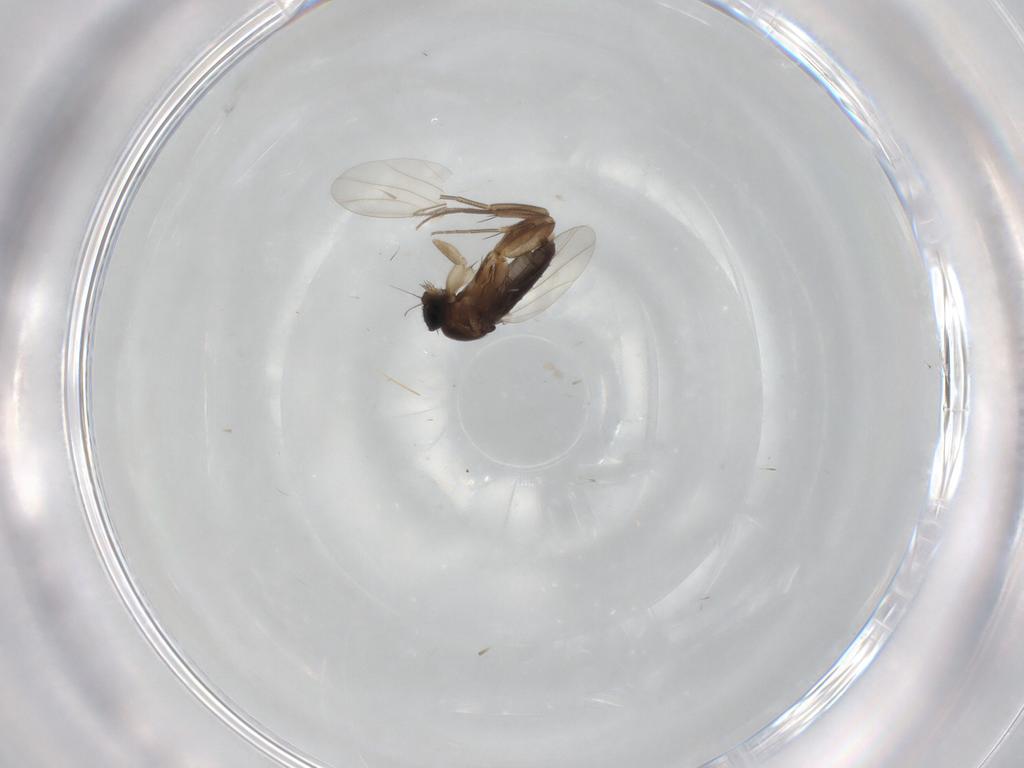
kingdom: Animalia
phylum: Arthropoda
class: Insecta
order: Diptera
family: Phoridae
